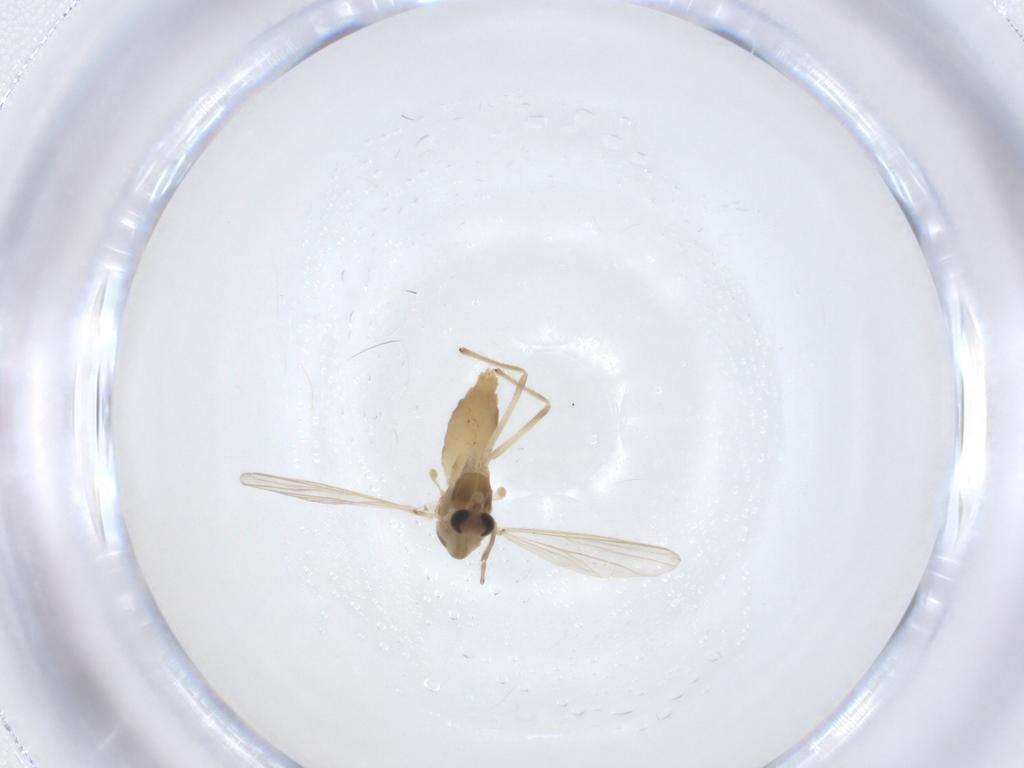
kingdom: Animalia
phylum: Arthropoda
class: Insecta
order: Diptera
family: Chironomidae
